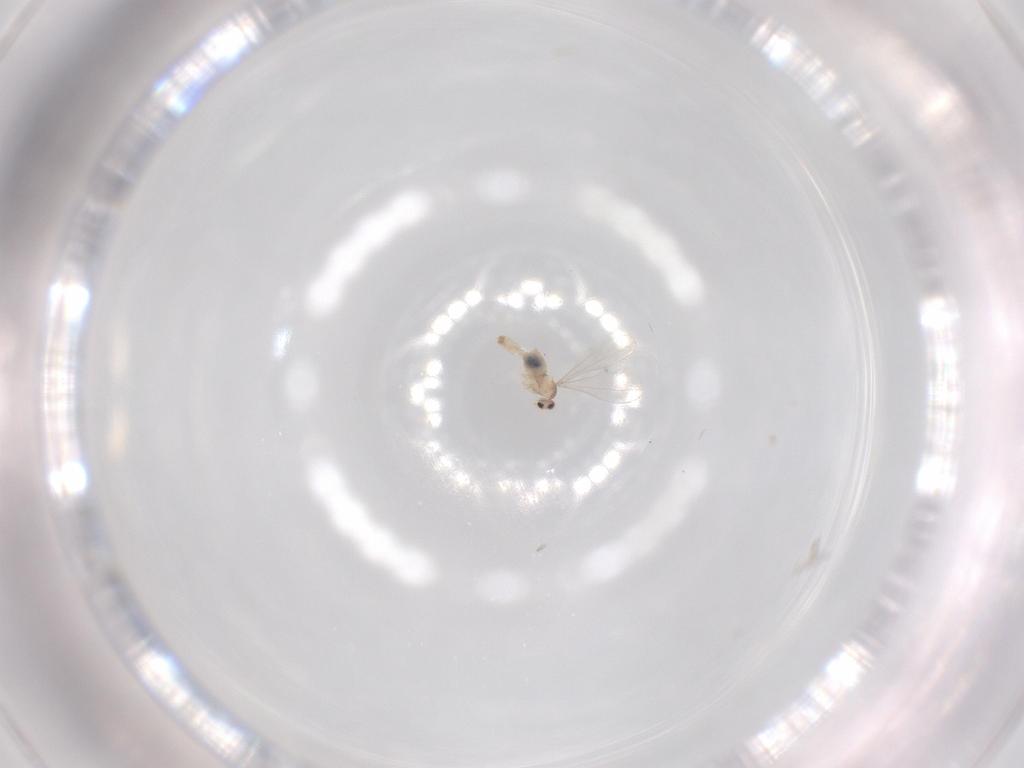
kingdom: Animalia
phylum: Arthropoda
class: Insecta
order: Diptera
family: Cecidomyiidae
